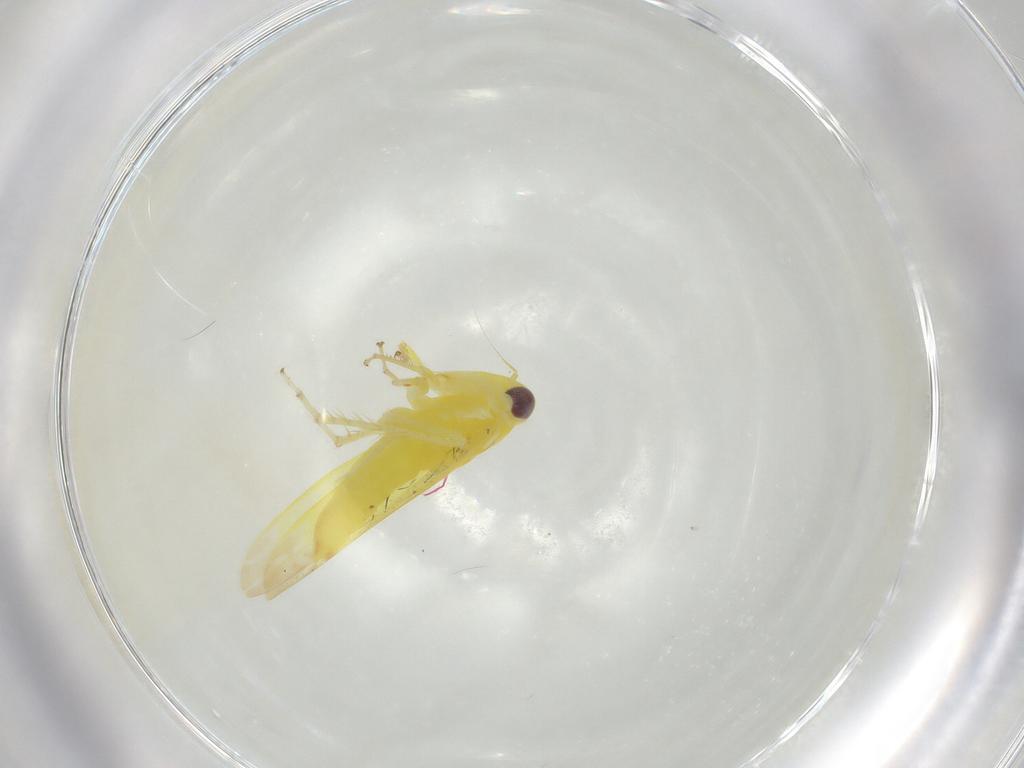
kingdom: Animalia
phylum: Arthropoda
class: Insecta
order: Hemiptera
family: Cicadellidae
